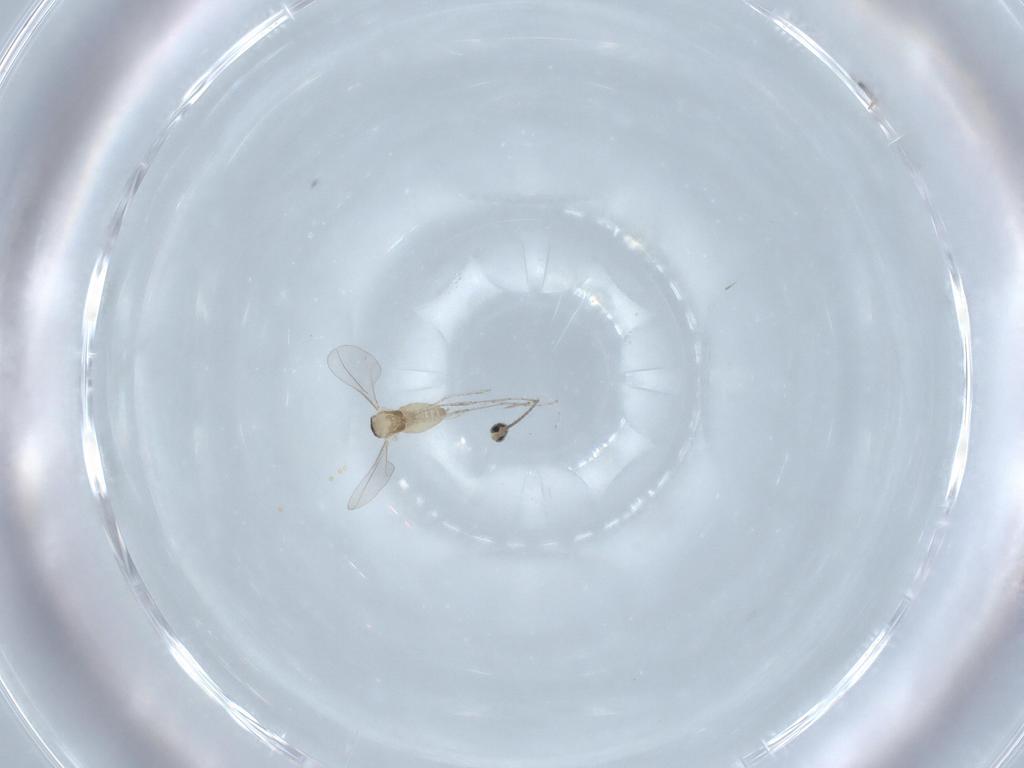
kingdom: Animalia
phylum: Arthropoda
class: Insecta
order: Diptera
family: Cecidomyiidae
